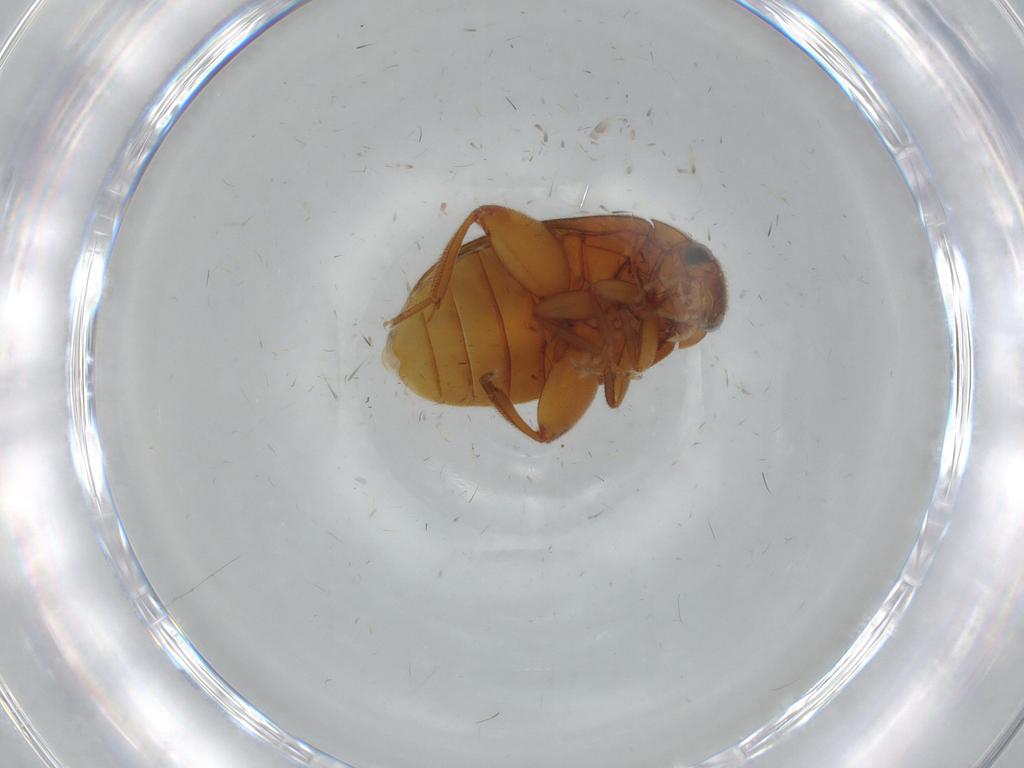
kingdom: Animalia
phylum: Arthropoda
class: Insecta
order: Coleoptera
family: Scirtidae
